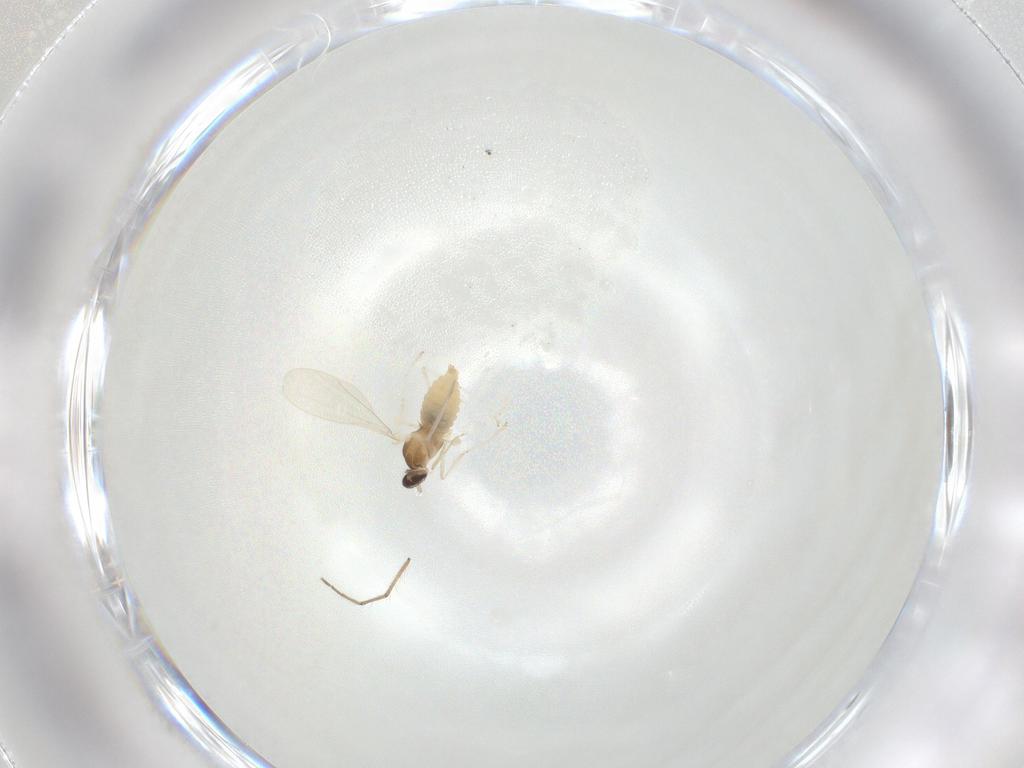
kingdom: Animalia
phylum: Arthropoda
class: Insecta
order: Diptera
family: Cecidomyiidae
